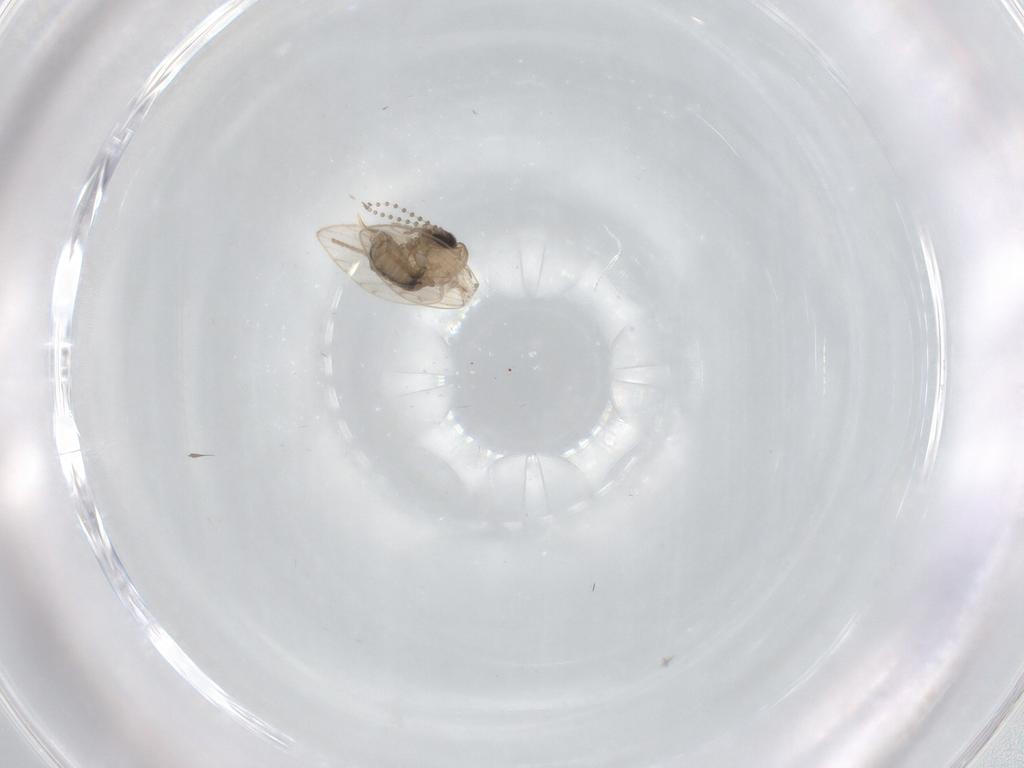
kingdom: Animalia
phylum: Arthropoda
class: Insecta
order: Diptera
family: Psychodidae
